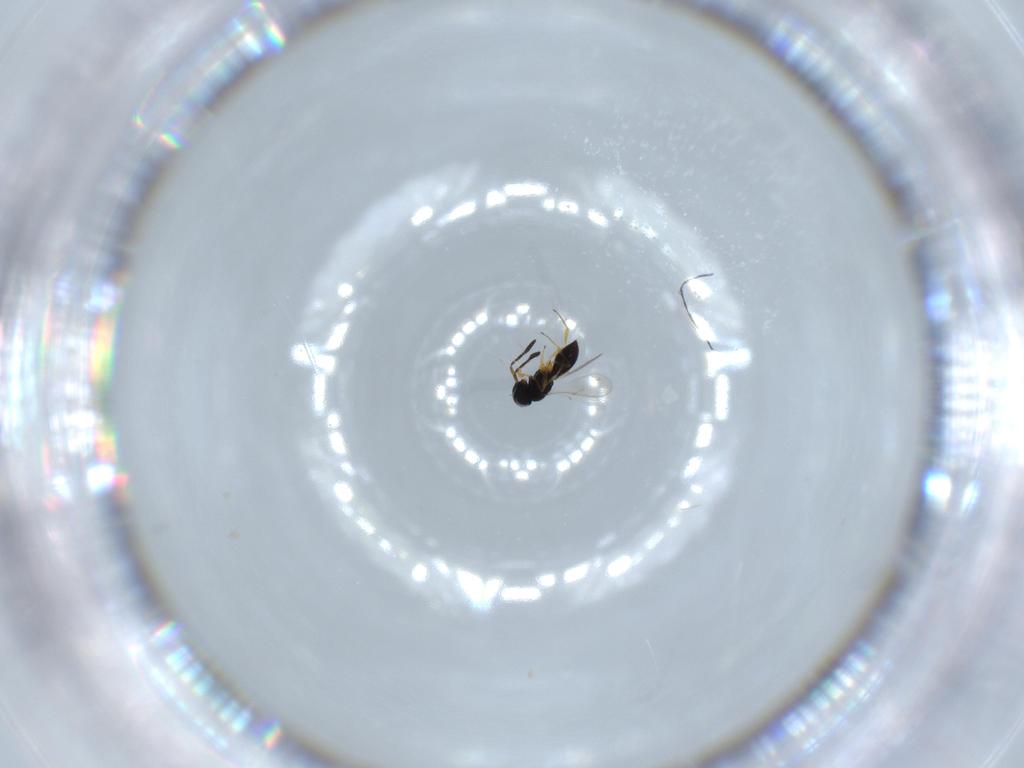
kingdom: Animalia
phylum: Arthropoda
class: Insecta
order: Hymenoptera
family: Scelionidae
